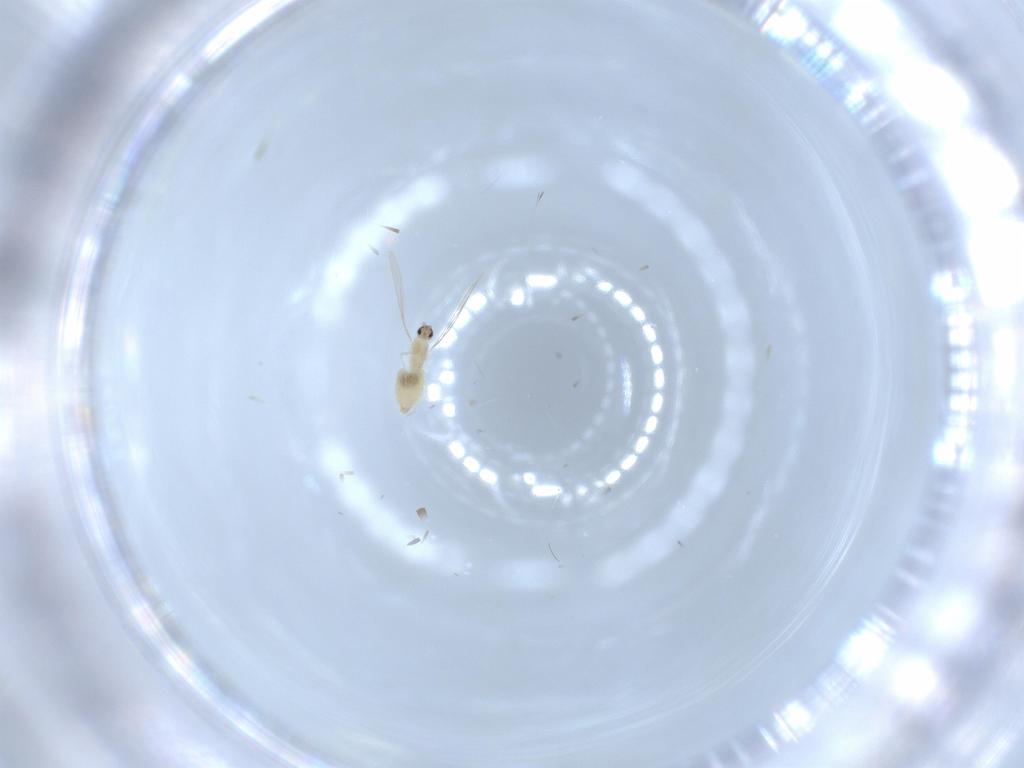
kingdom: Animalia
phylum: Arthropoda
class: Insecta
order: Diptera
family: Cecidomyiidae
